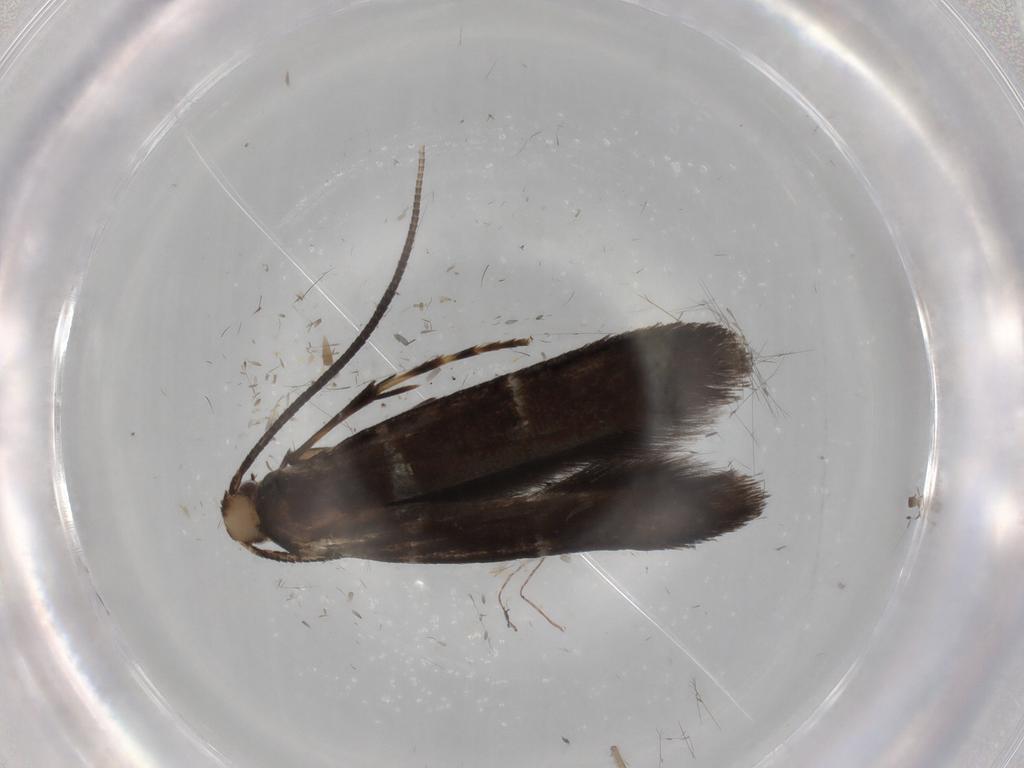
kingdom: Animalia
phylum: Arthropoda
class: Insecta
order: Lepidoptera
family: Gracillariidae
